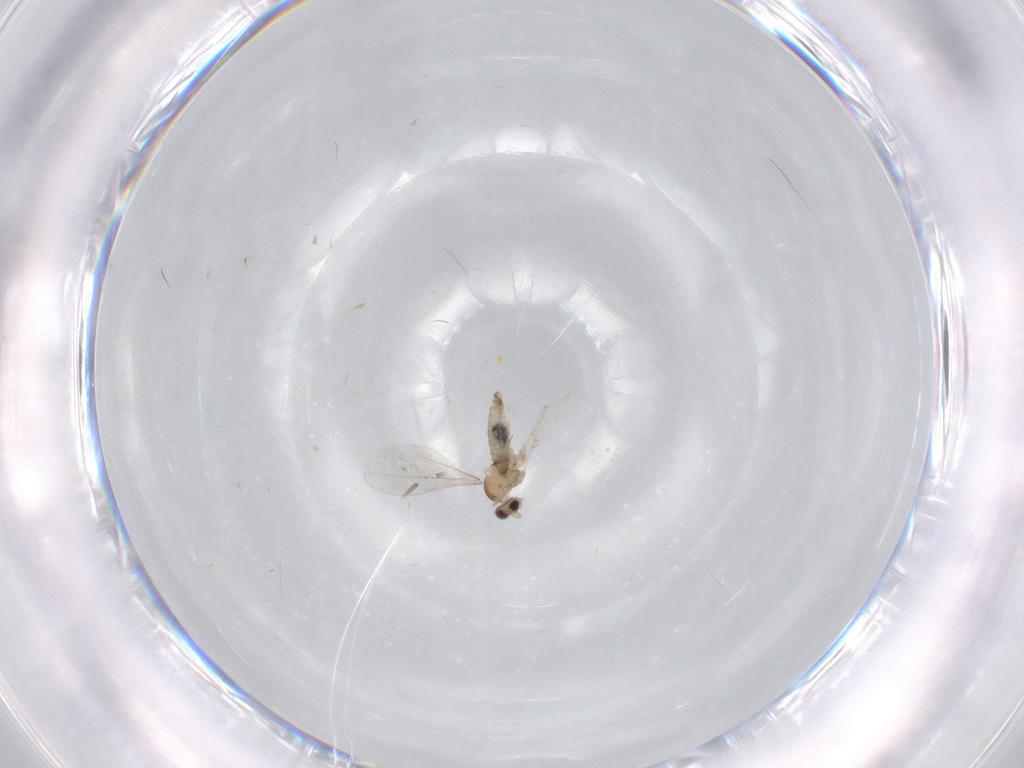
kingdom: Animalia
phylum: Arthropoda
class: Insecta
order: Diptera
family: Cecidomyiidae
